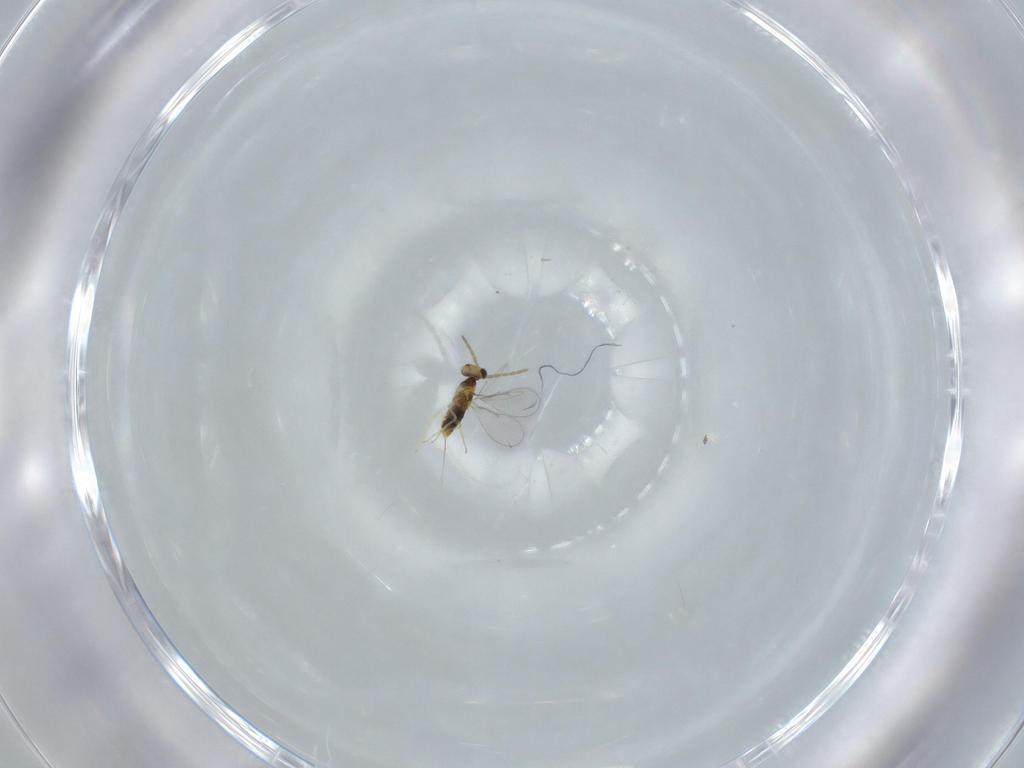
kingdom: Animalia
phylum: Arthropoda
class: Insecta
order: Hymenoptera
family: Aphelinidae
